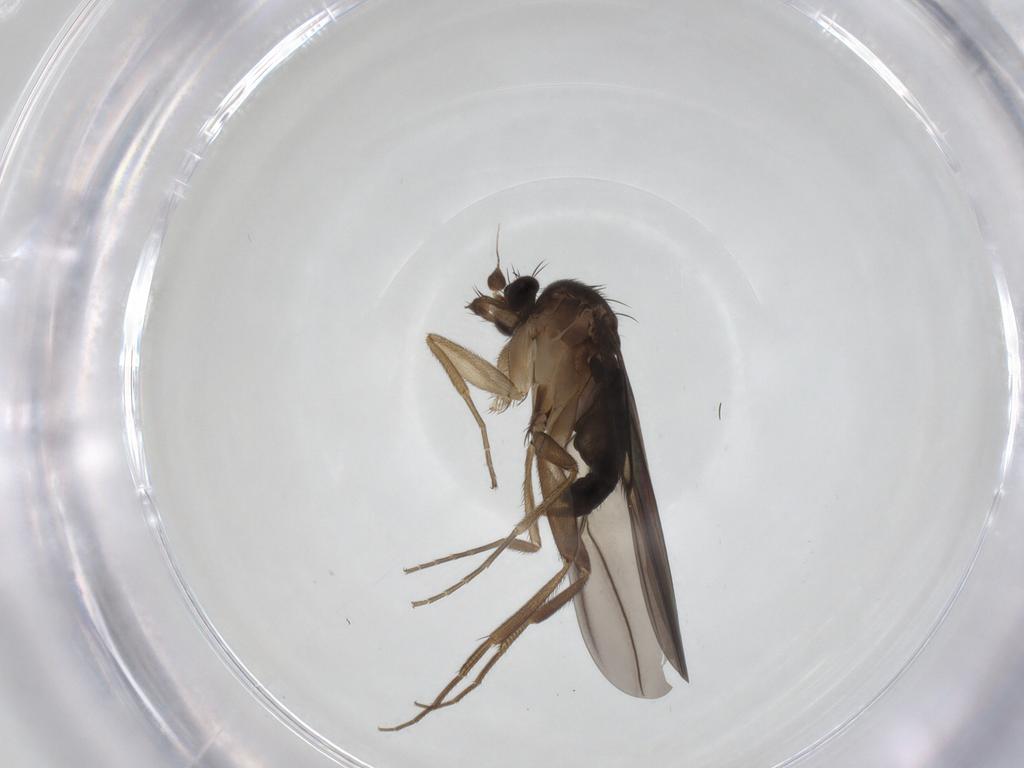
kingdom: Animalia
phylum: Arthropoda
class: Insecta
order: Diptera
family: Phoridae
